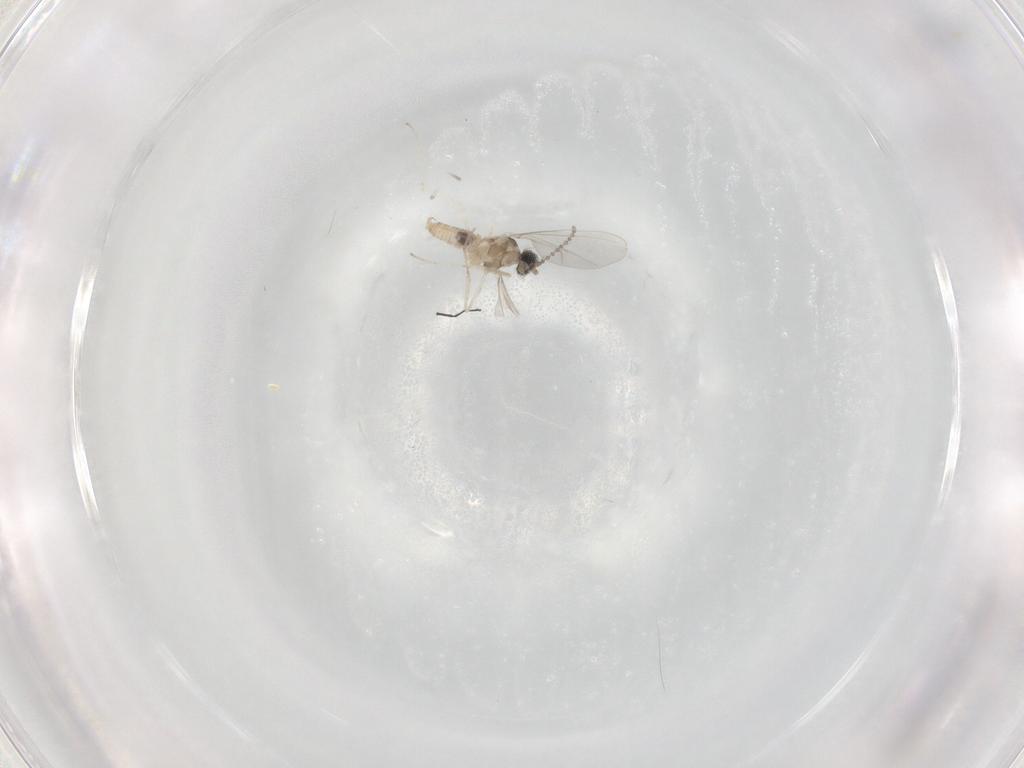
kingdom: Animalia
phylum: Arthropoda
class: Insecta
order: Diptera
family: Cecidomyiidae
